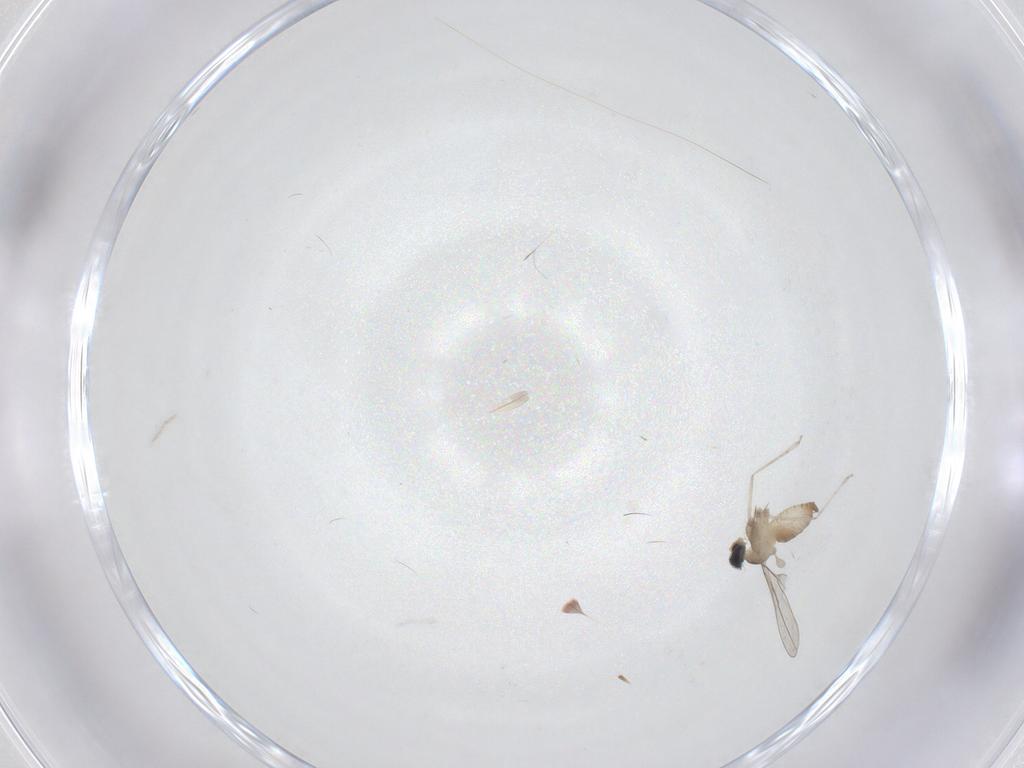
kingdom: Animalia
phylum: Arthropoda
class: Insecta
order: Diptera
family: Cecidomyiidae
